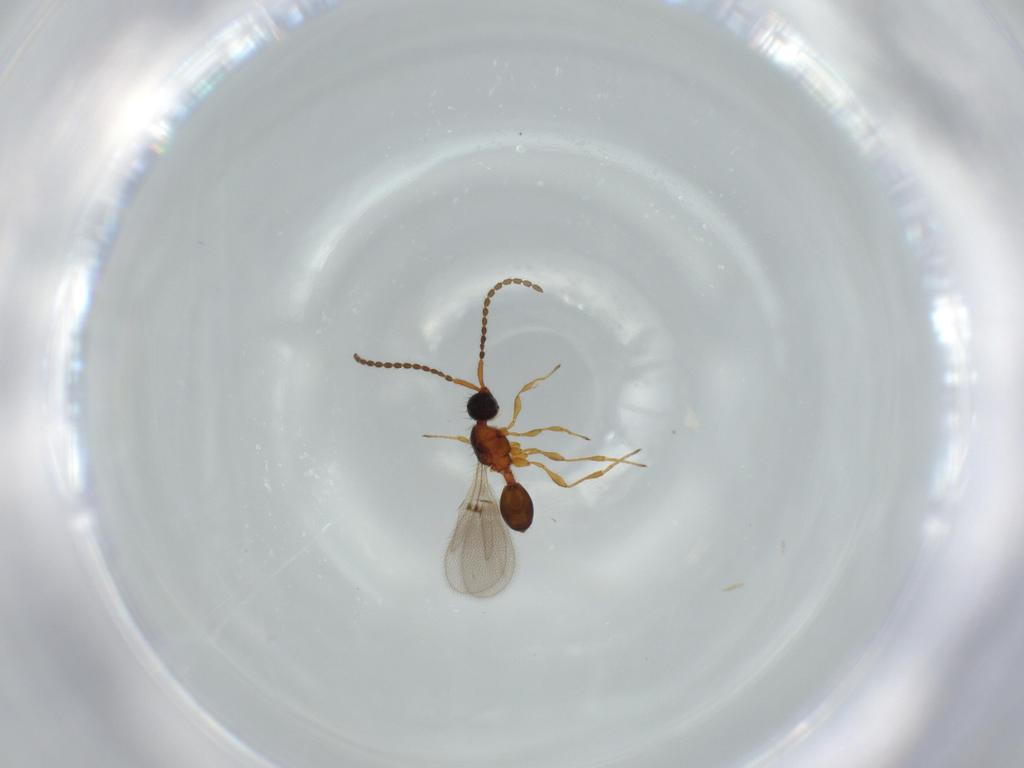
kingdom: Animalia
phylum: Arthropoda
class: Insecta
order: Hymenoptera
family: Diapriidae
